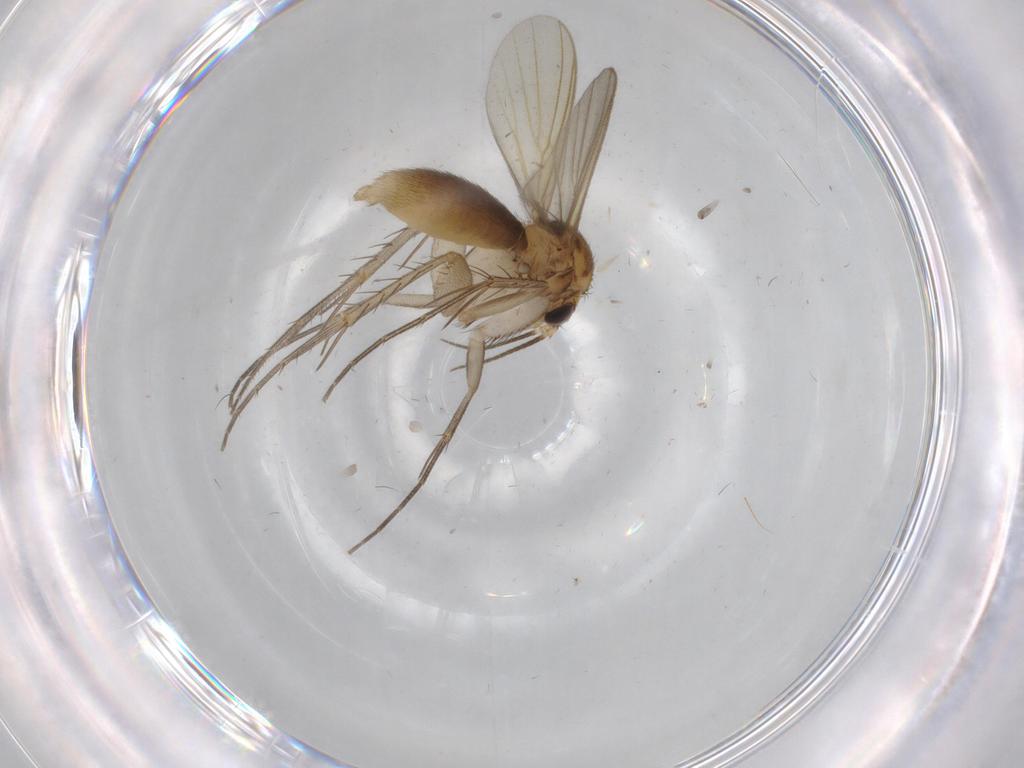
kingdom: Animalia
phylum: Arthropoda
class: Insecta
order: Diptera
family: Mycetophilidae
